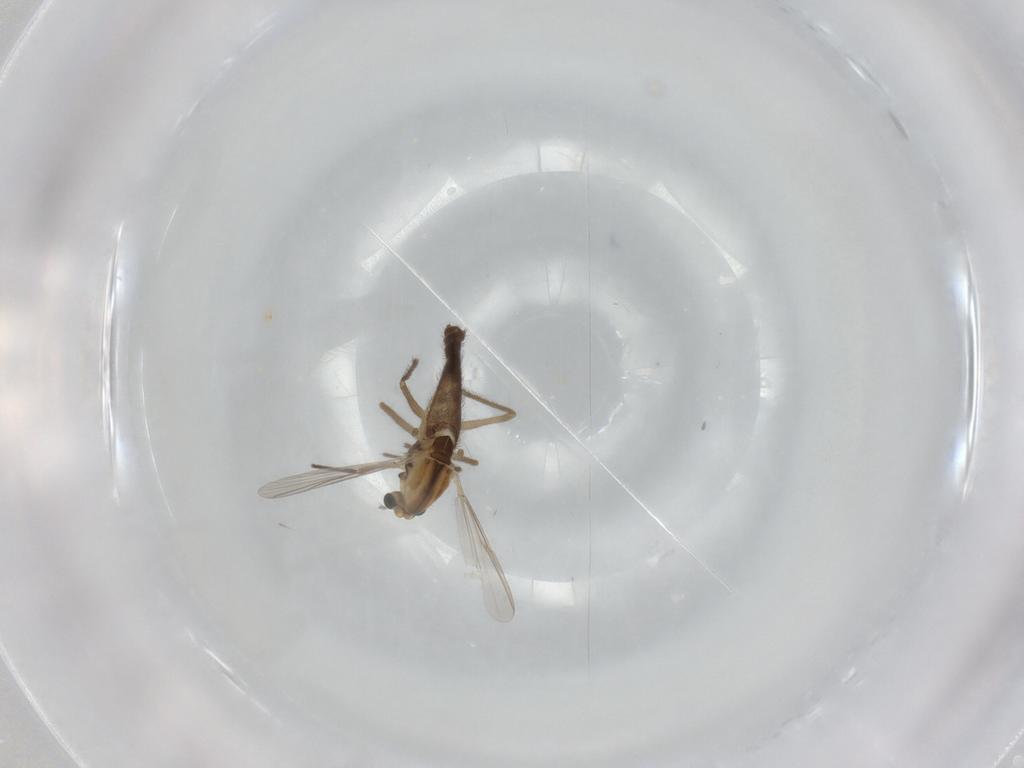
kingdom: Animalia
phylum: Arthropoda
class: Insecta
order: Diptera
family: Chironomidae
